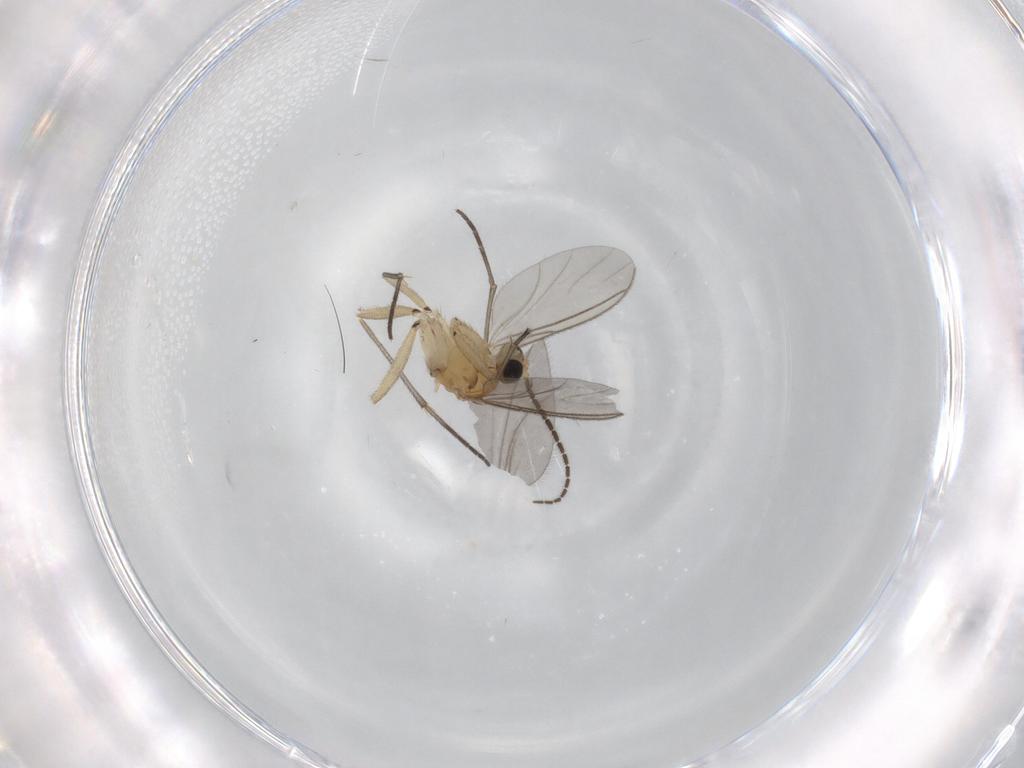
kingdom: Animalia
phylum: Arthropoda
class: Insecta
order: Diptera
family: Sciaridae
